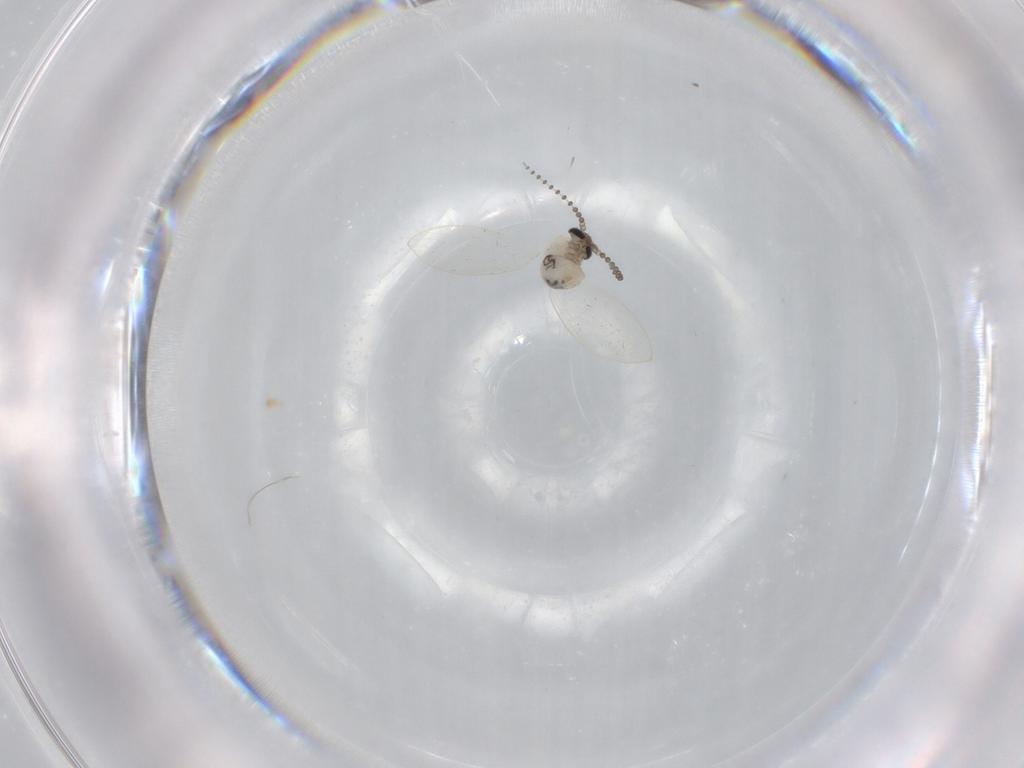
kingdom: Animalia
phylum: Arthropoda
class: Insecta
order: Diptera
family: Psychodidae
